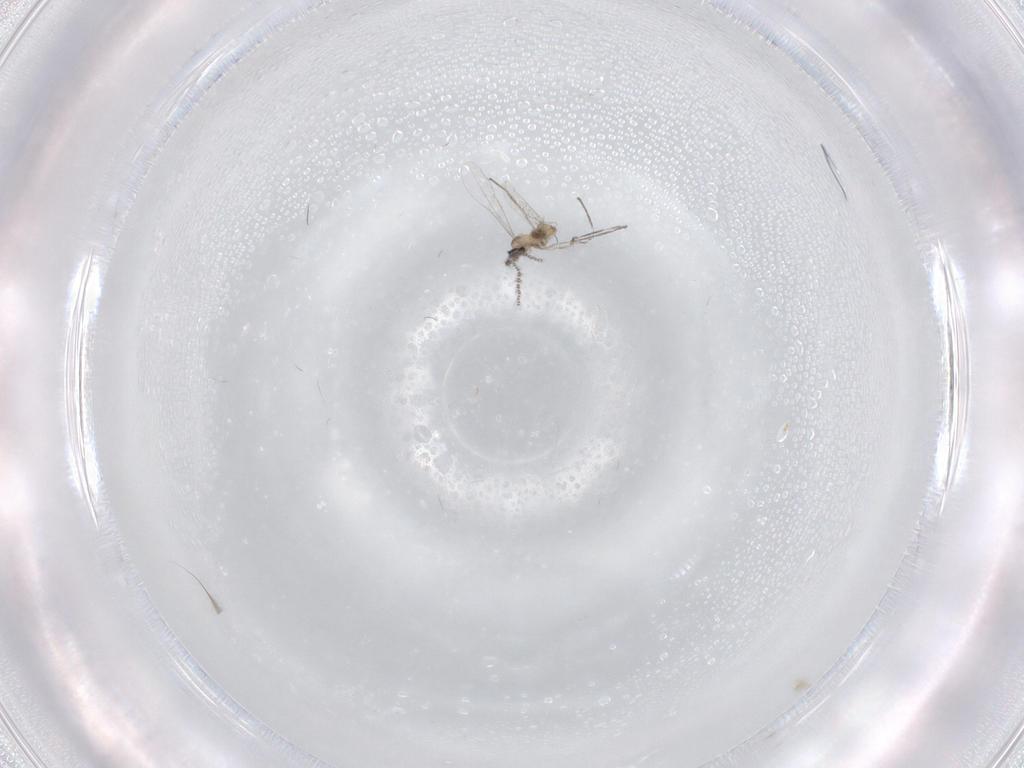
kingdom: Animalia
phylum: Arthropoda
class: Insecta
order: Diptera
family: Cecidomyiidae
